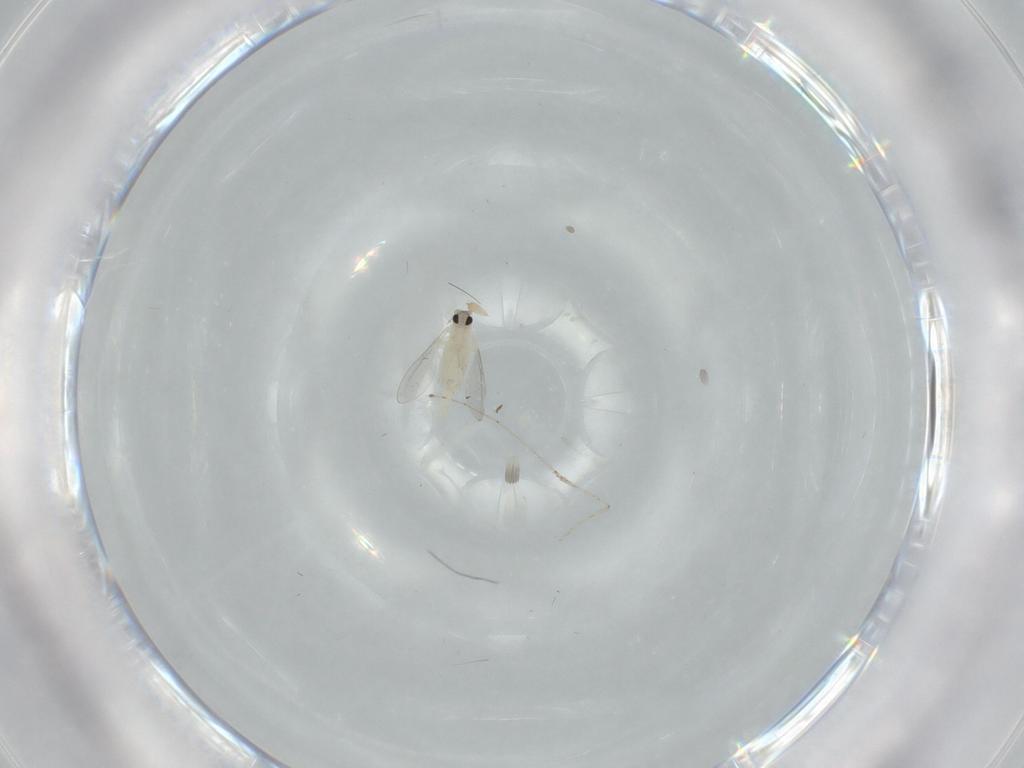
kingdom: Animalia
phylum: Arthropoda
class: Insecta
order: Diptera
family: Cecidomyiidae
